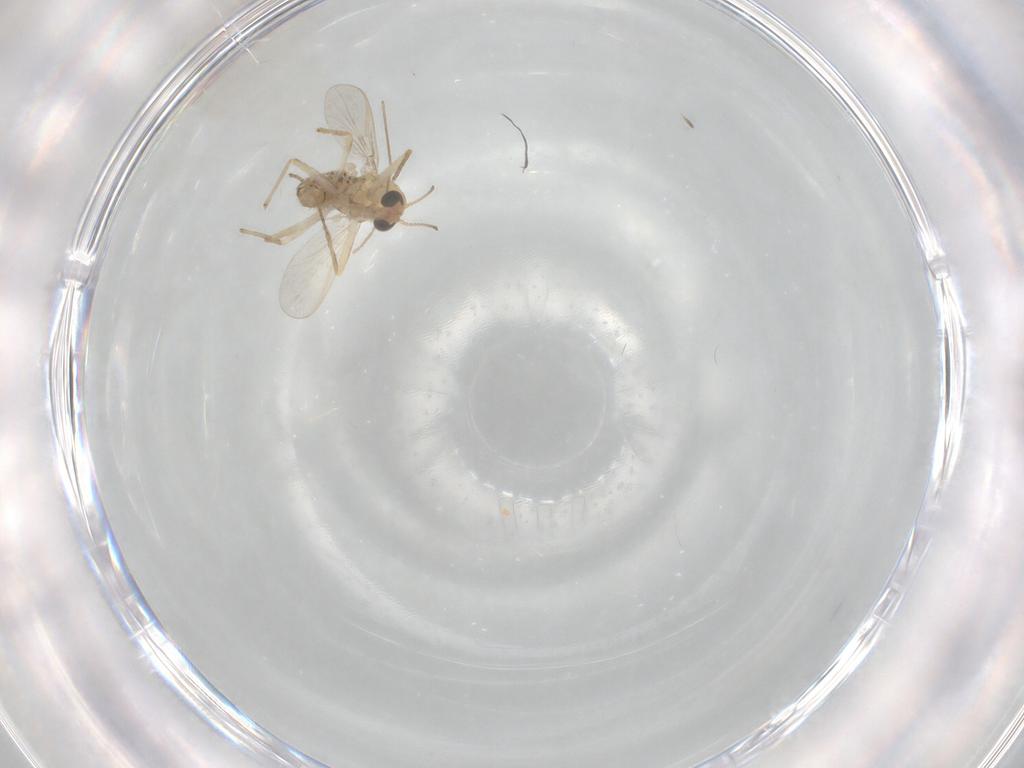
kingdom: Animalia
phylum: Arthropoda
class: Insecta
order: Diptera
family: Chironomidae
